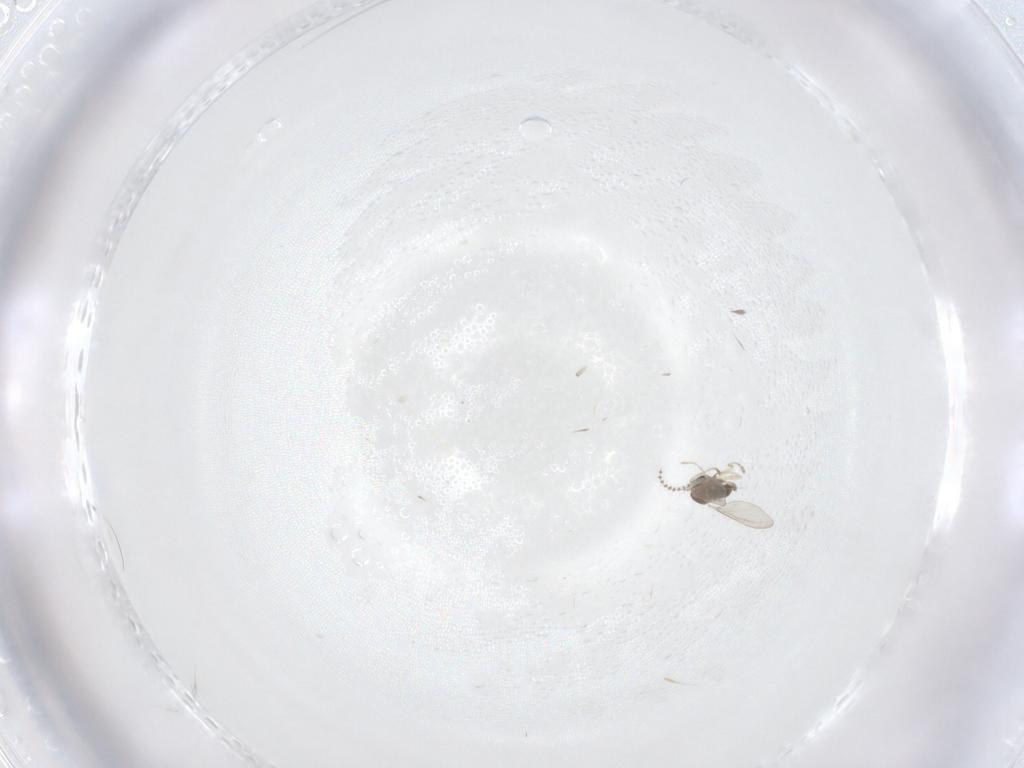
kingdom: Animalia
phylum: Arthropoda
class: Insecta
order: Diptera
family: Cecidomyiidae
